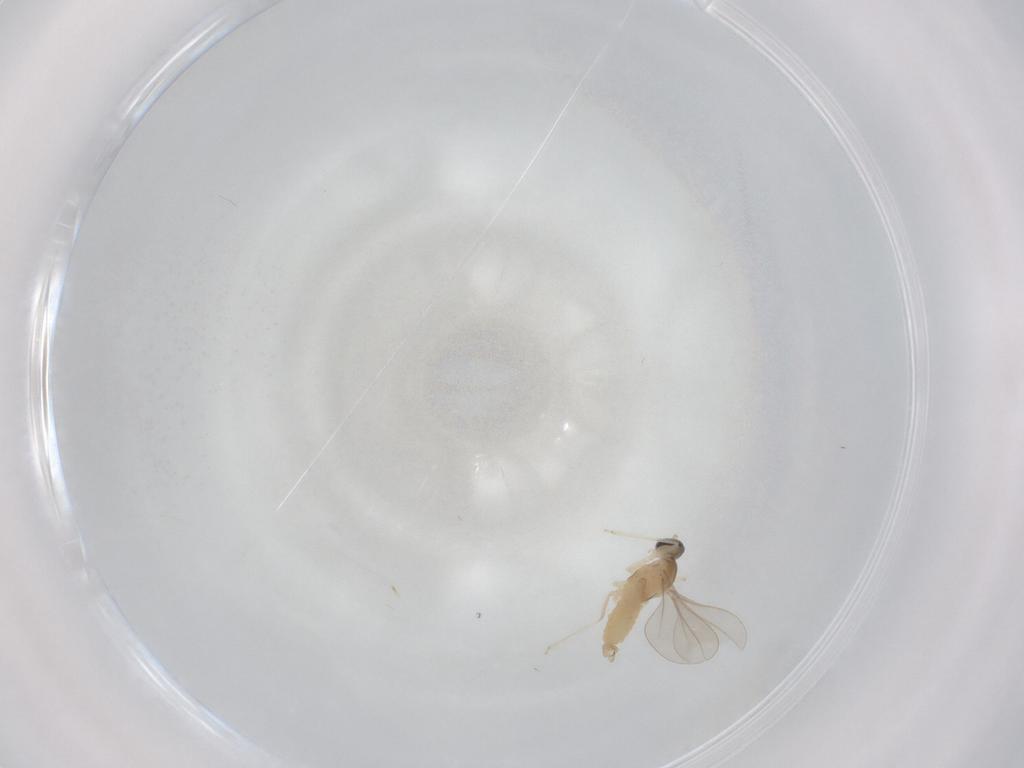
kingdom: Animalia
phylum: Arthropoda
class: Insecta
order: Diptera
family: Cecidomyiidae
